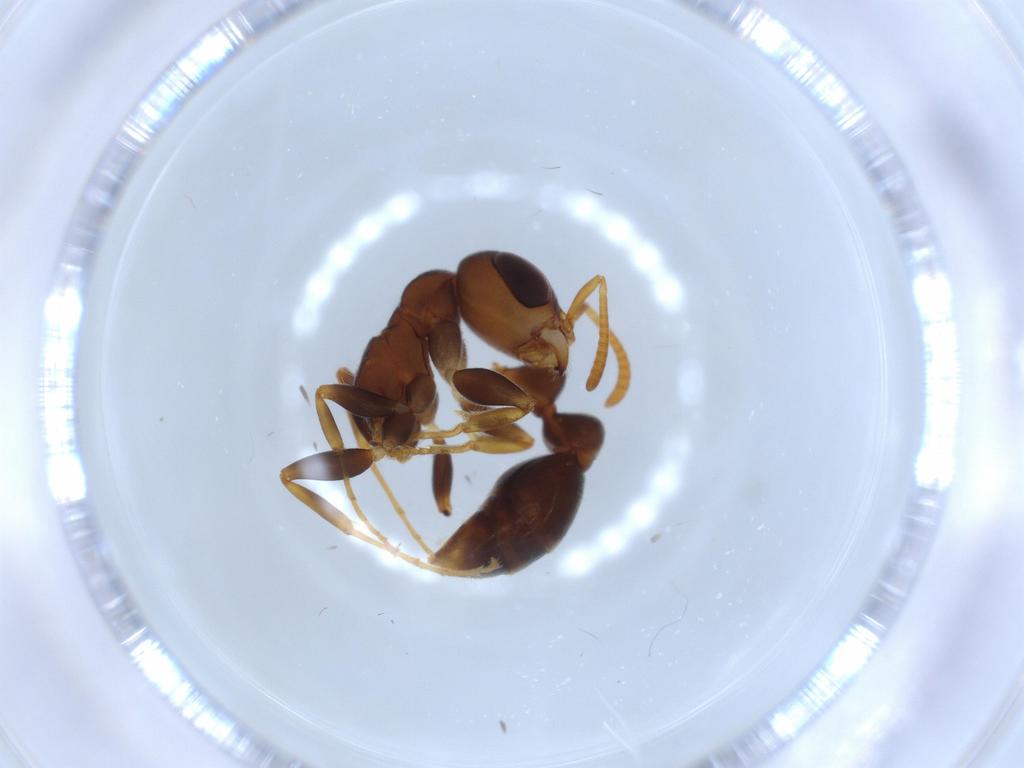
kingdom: Animalia
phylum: Arthropoda
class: Insecta
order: Hymenoptera
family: Formicidae
